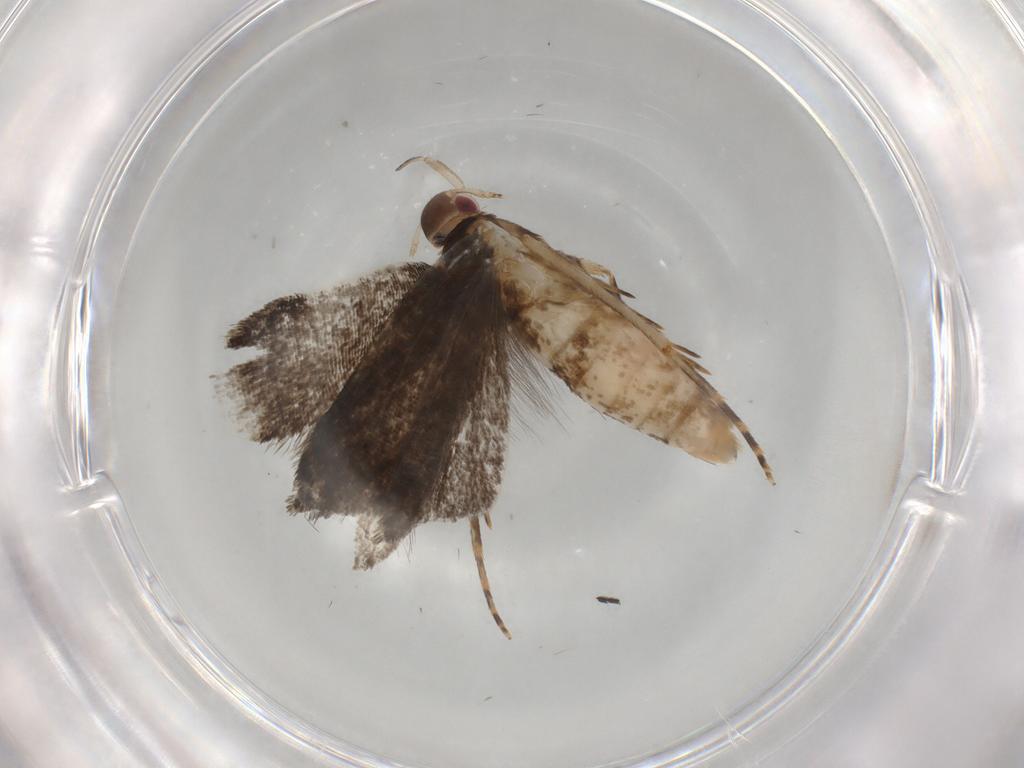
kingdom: Animalia
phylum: Arthropoda
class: Insecta
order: Lepidoptera
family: Gelechiidae
